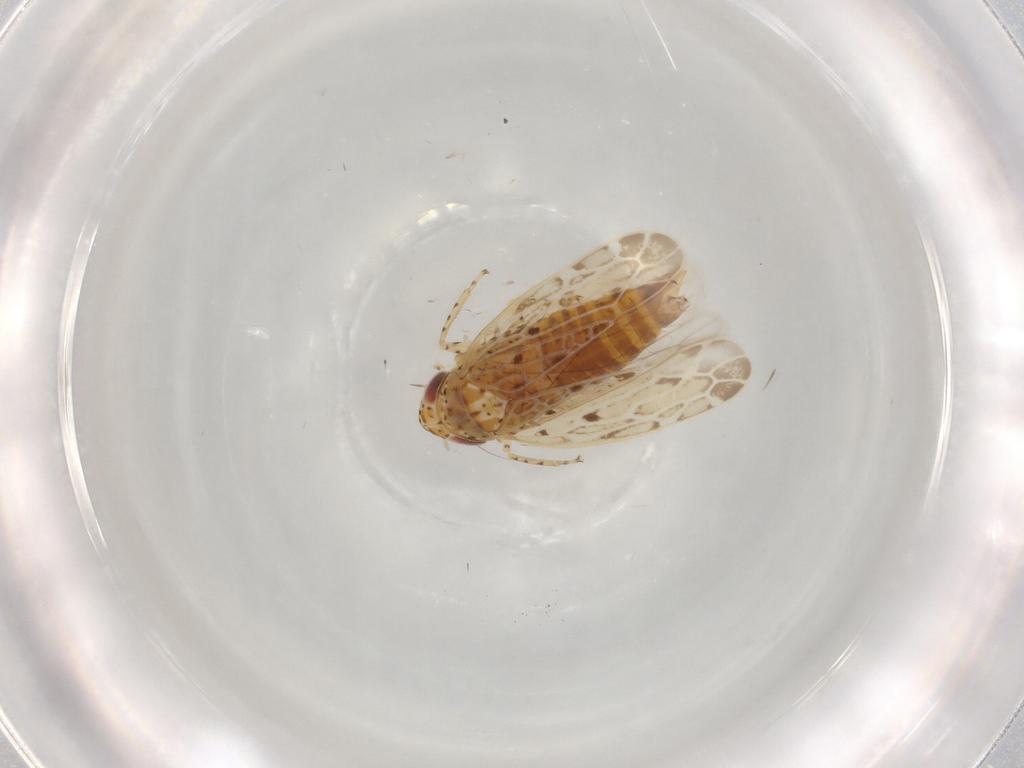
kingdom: Animalia
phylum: Arthropoda
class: Insecta
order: Hemiptera
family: Cicadellidae
